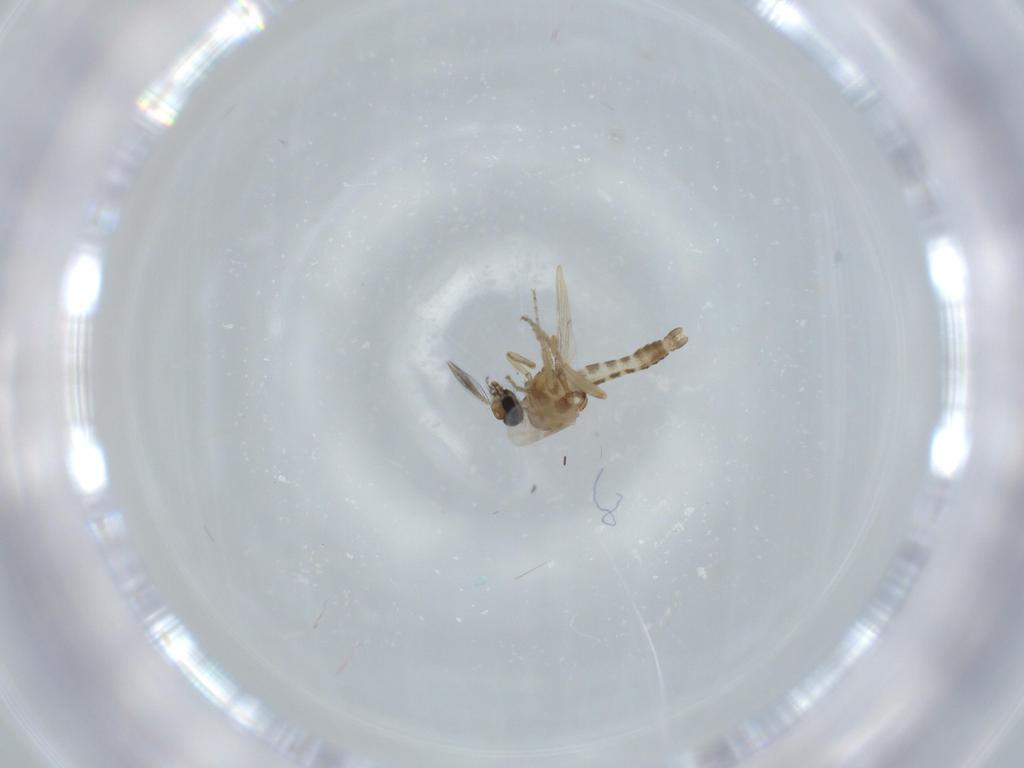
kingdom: Animalia
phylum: Arthropoda
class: Insecta
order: Diptera
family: Ceratopogonidae
